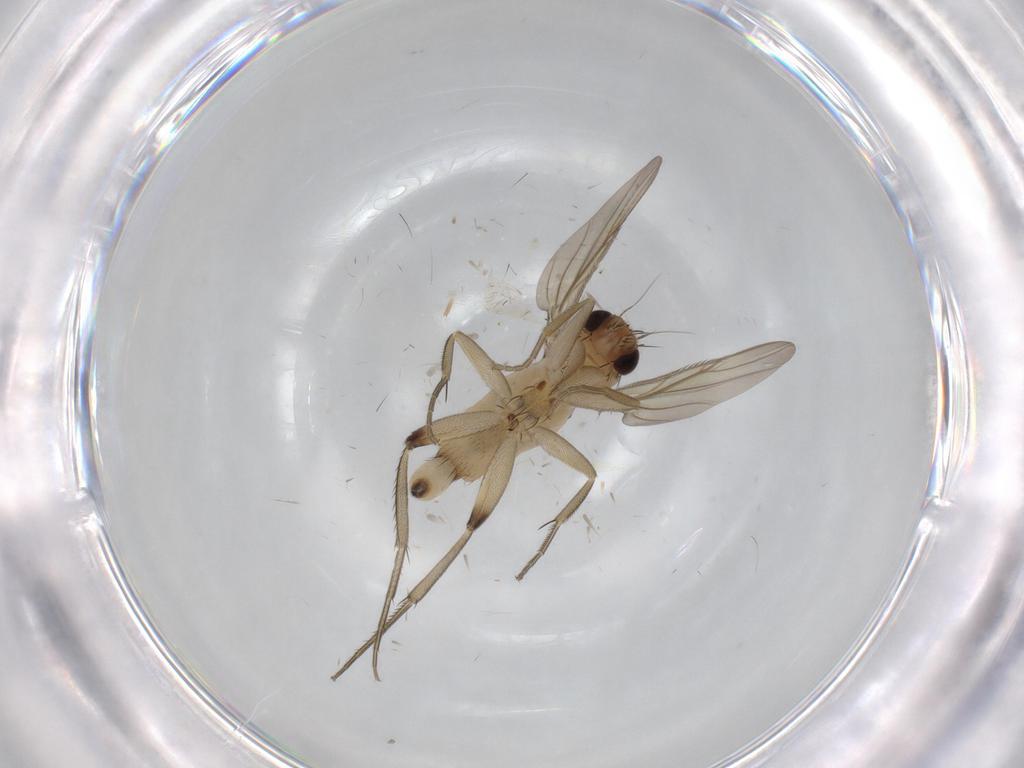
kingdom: Animalia
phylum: Arthropoda
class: Insecta
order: Diptera
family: Phoridae
